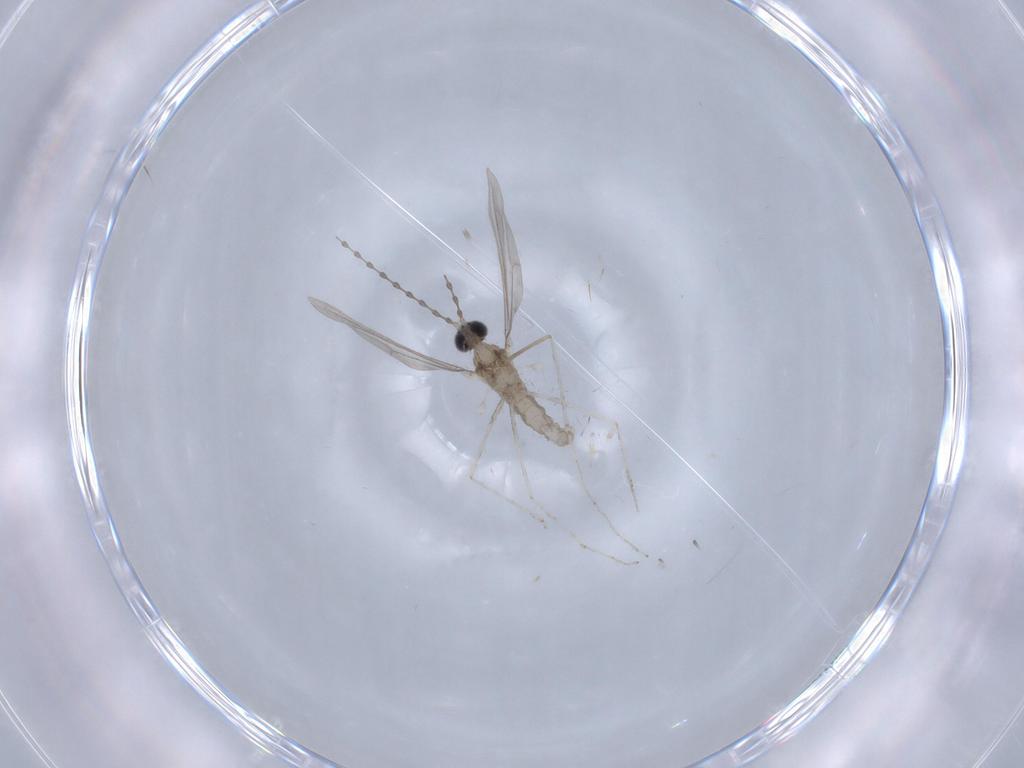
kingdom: Animalia
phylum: Arthropoda
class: Insecta
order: Diptera
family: Cecidomyiidae
